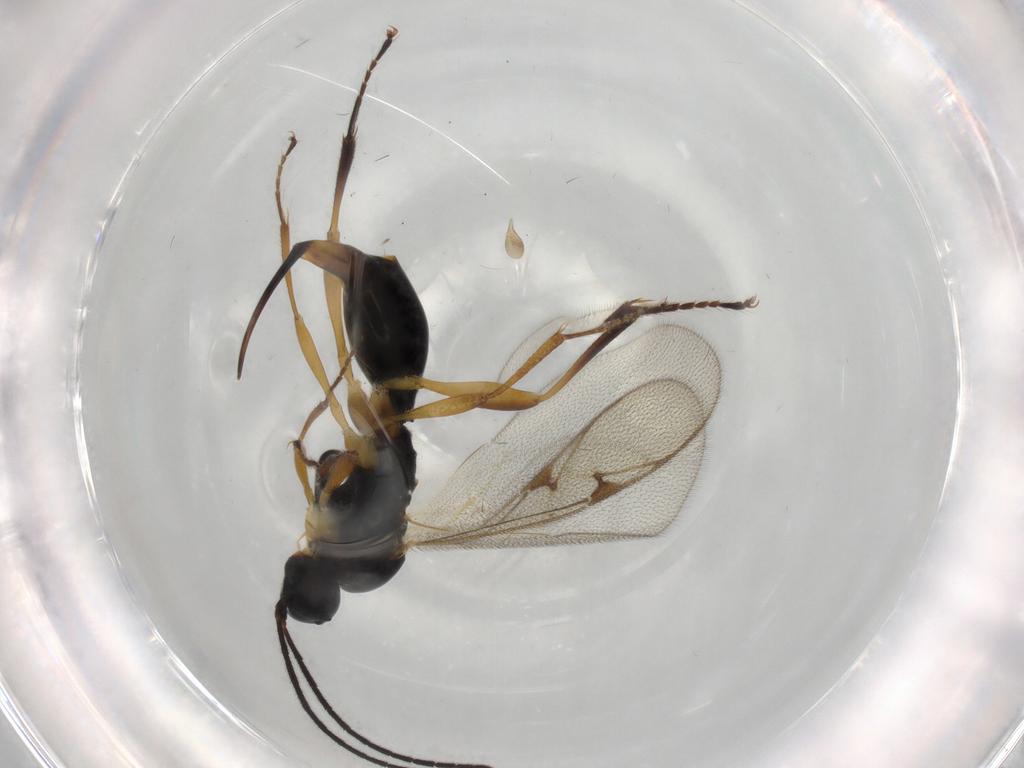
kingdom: Animalia
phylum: Arthropoda
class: Insecta
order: Hymenoptera
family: Proctotrupidae
